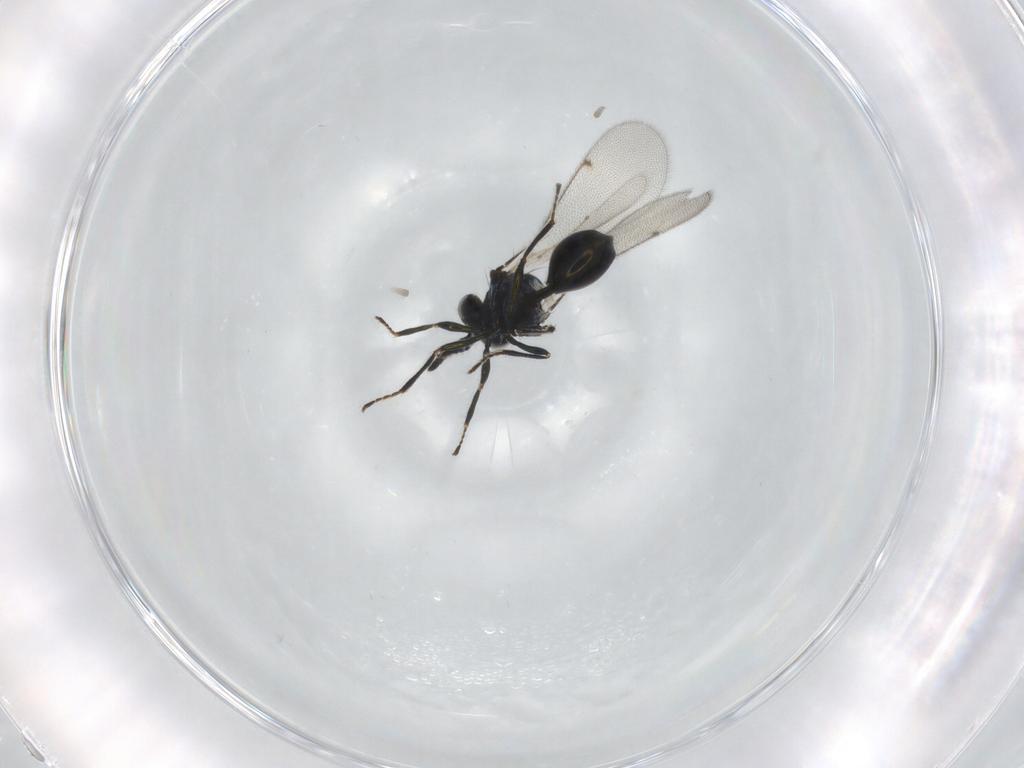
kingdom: Animalia
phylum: Arthropoda
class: Insecta
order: Hymenoptera
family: Eulophidae
